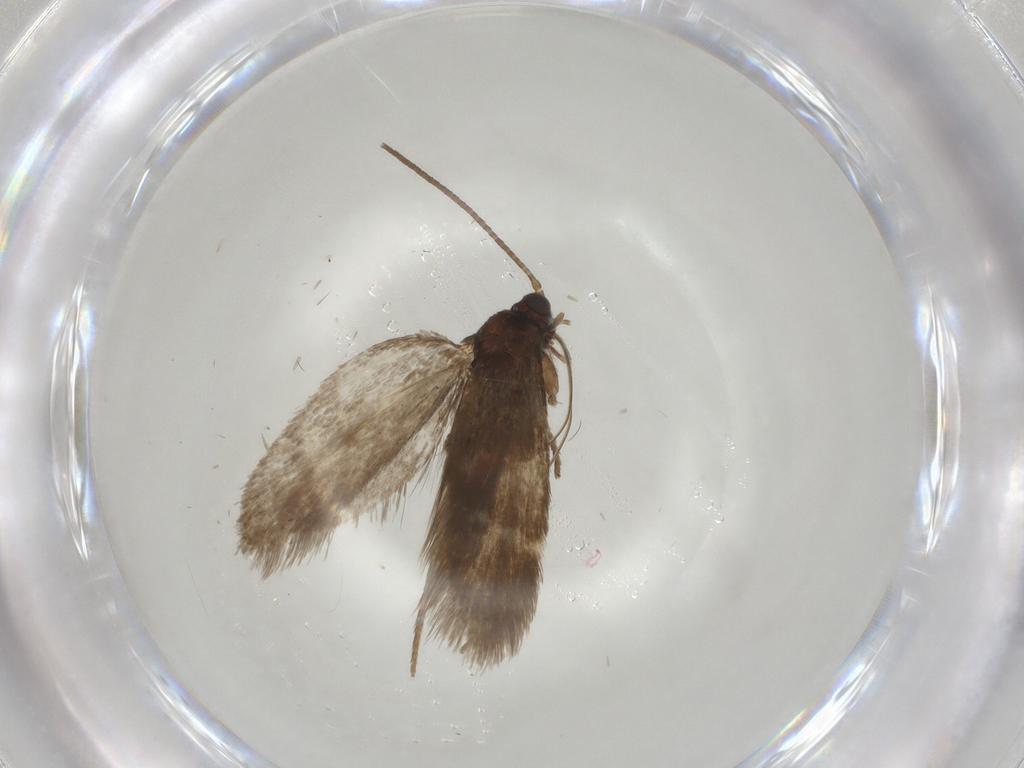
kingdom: Animalia
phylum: Arthropoda
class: Insecta
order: Lepidoptera
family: Adelidae
